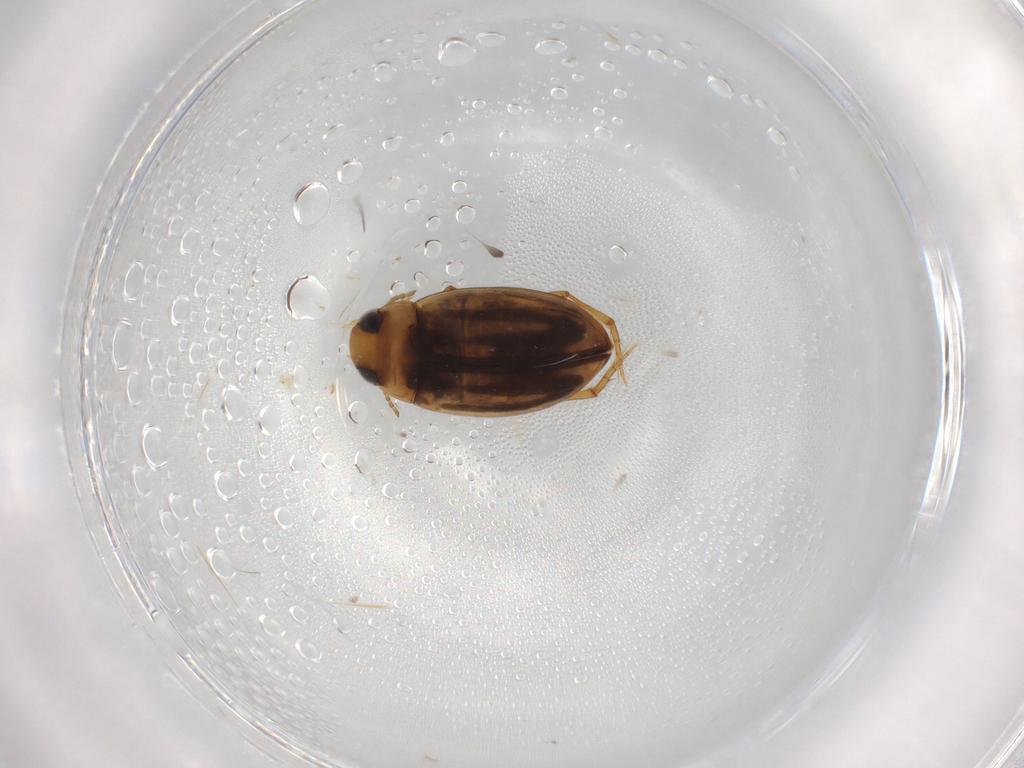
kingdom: Animalia
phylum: Arthropoda
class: Insecta
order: Coleoptera
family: Dytiscidae
